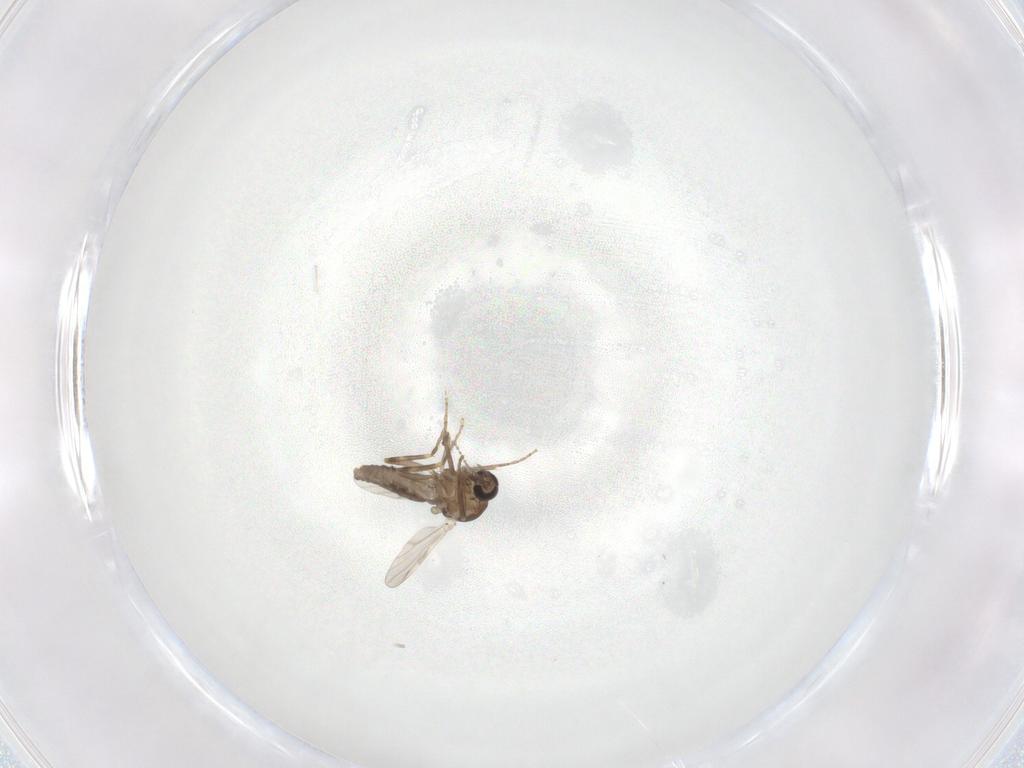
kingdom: Animalia
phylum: Arthropoda
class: Insecta
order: Diptera
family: Ceratopogonidae
